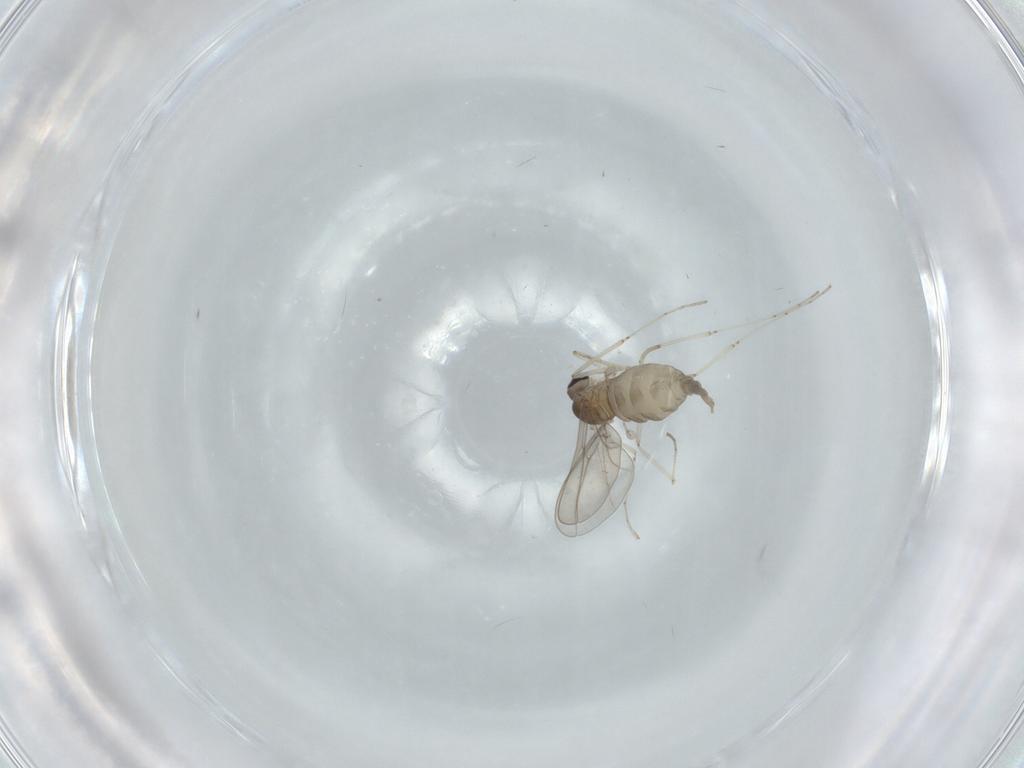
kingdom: Animalia
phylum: Arthropoda
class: Insecta
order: Diptera
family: Cecidomyiidae
